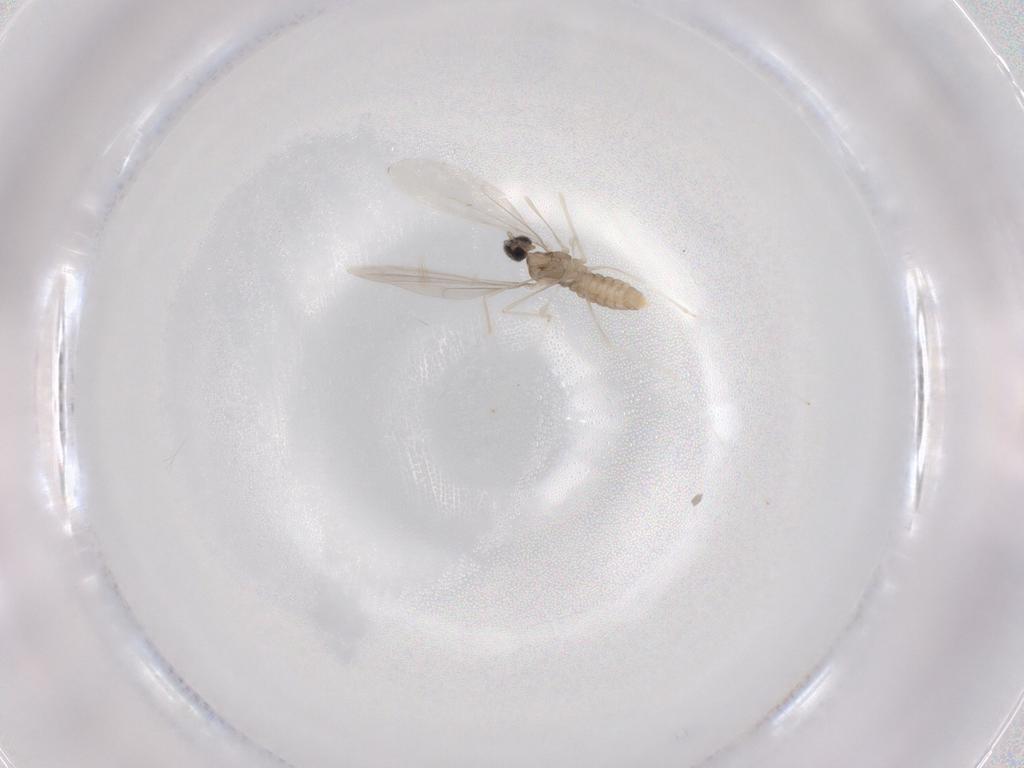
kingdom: Animalia
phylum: Arthropoda
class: Insecta
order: Diptera
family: Cecidomyiidae
